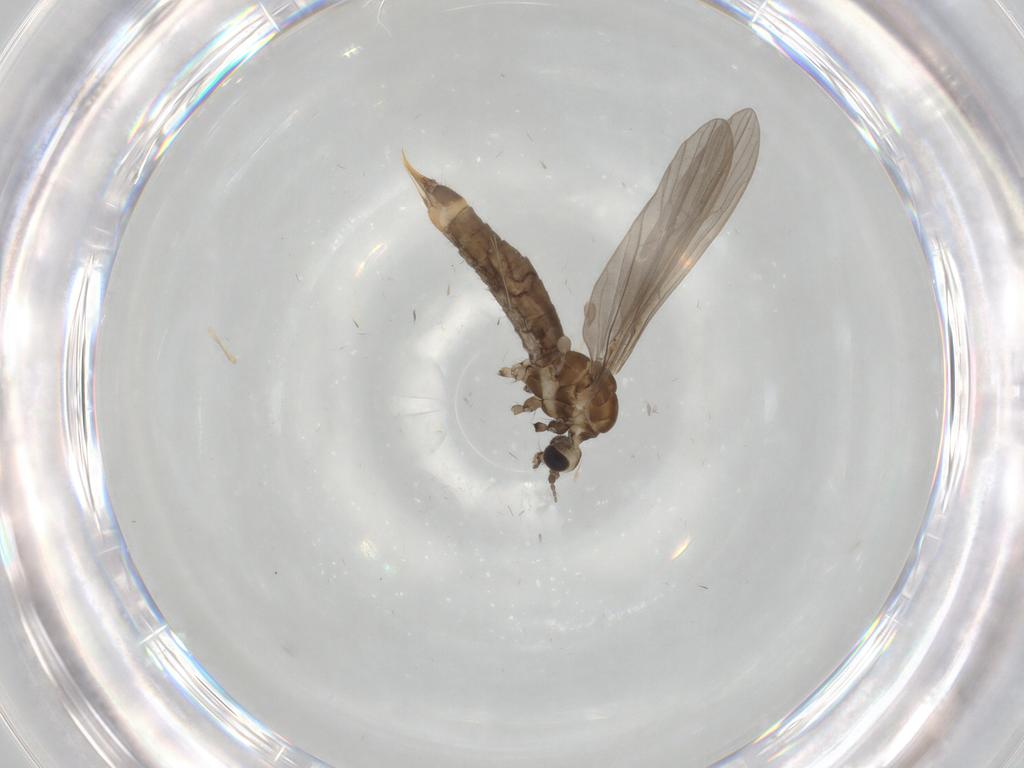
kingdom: Animalia
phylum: Arthropoda
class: Insecta
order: Diptera
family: Limoniidae
